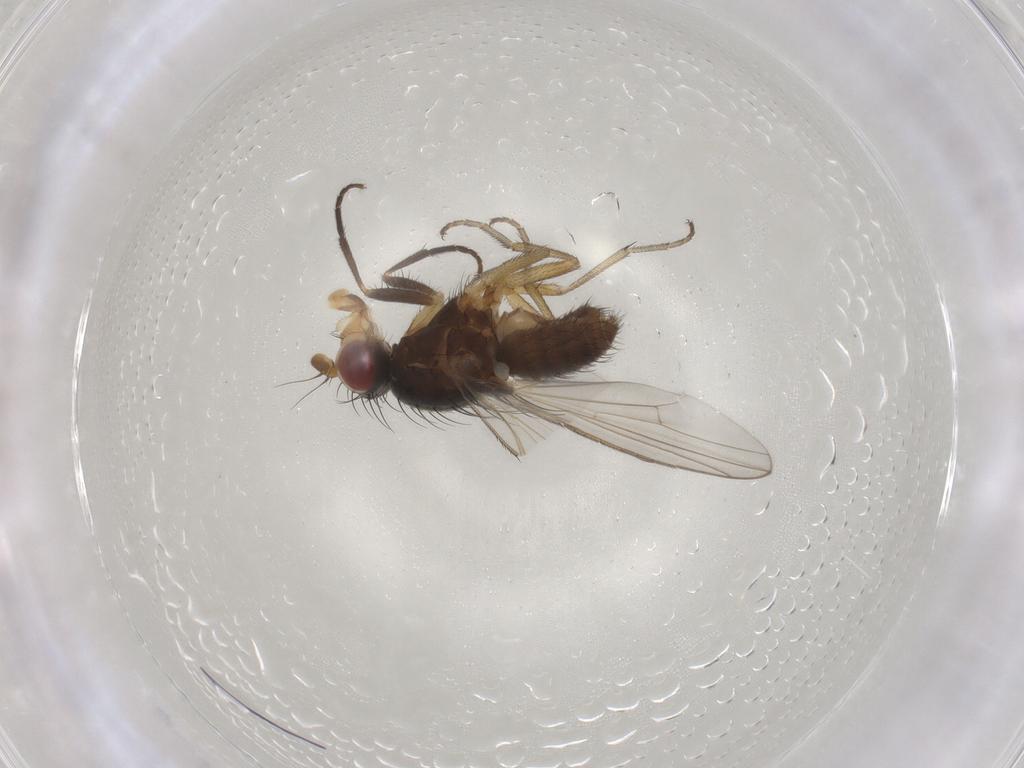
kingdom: Animalia
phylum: Arthropoda
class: Insecta
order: Diptera
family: Heleomyzidae
